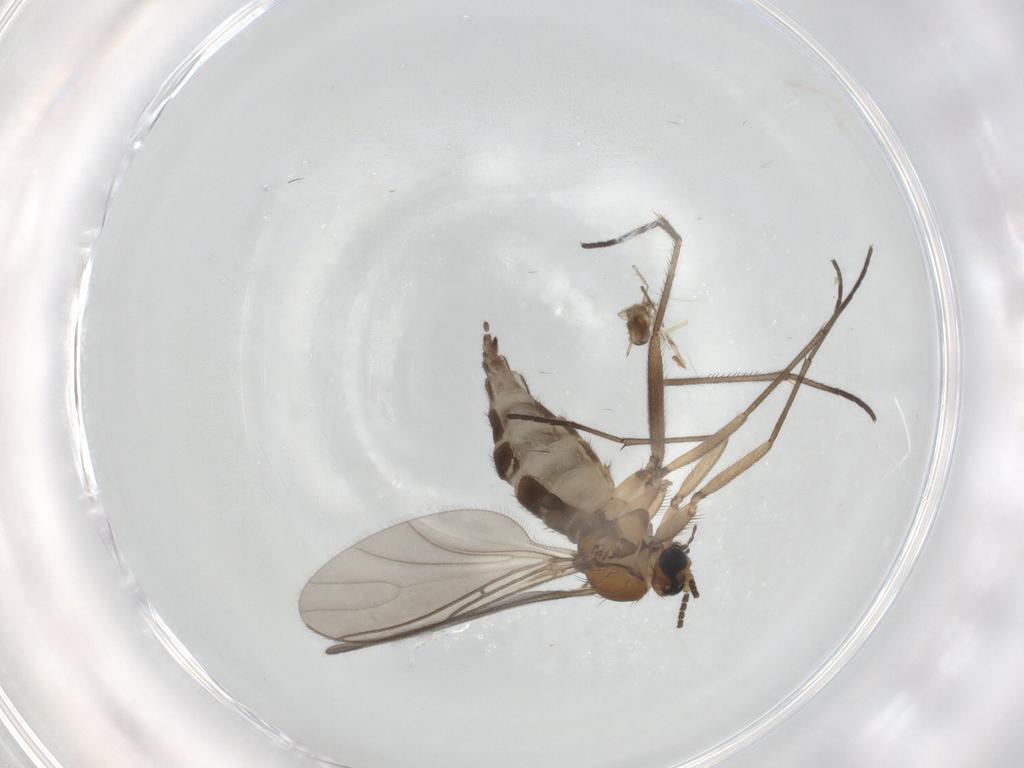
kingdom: Animalia
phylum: Arthropoda
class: Insecta
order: Diptera
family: Sciaridae
